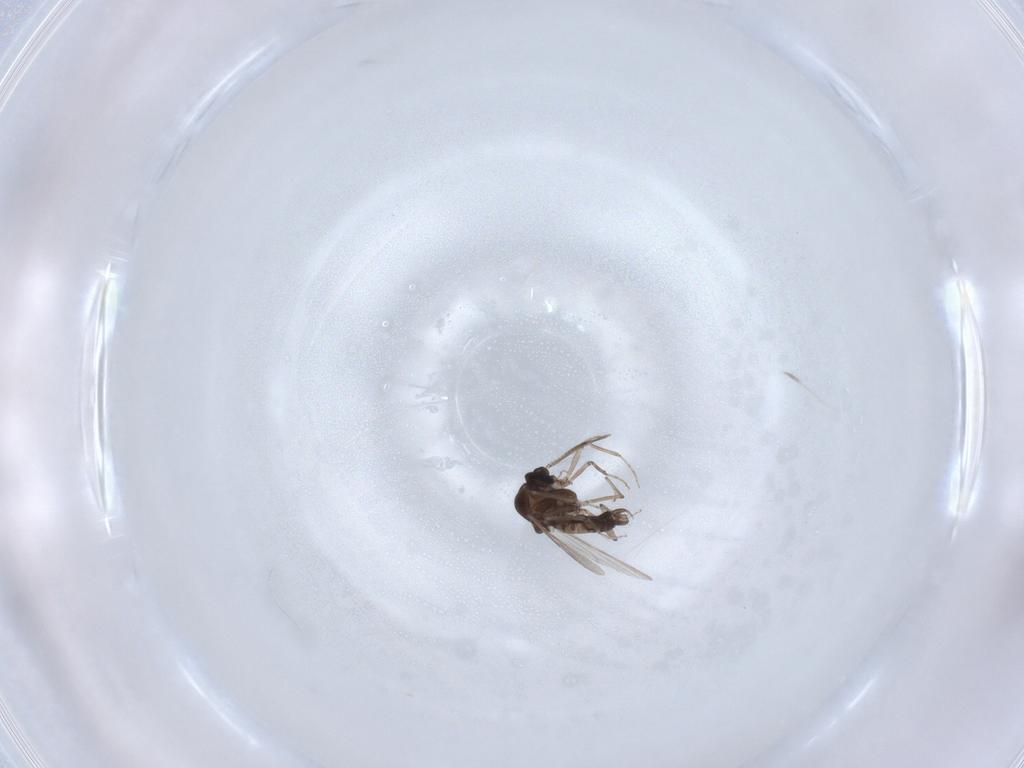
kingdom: Animalia
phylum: Arthropoda
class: Insecta
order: Diptera
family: Ceratopogonidae
